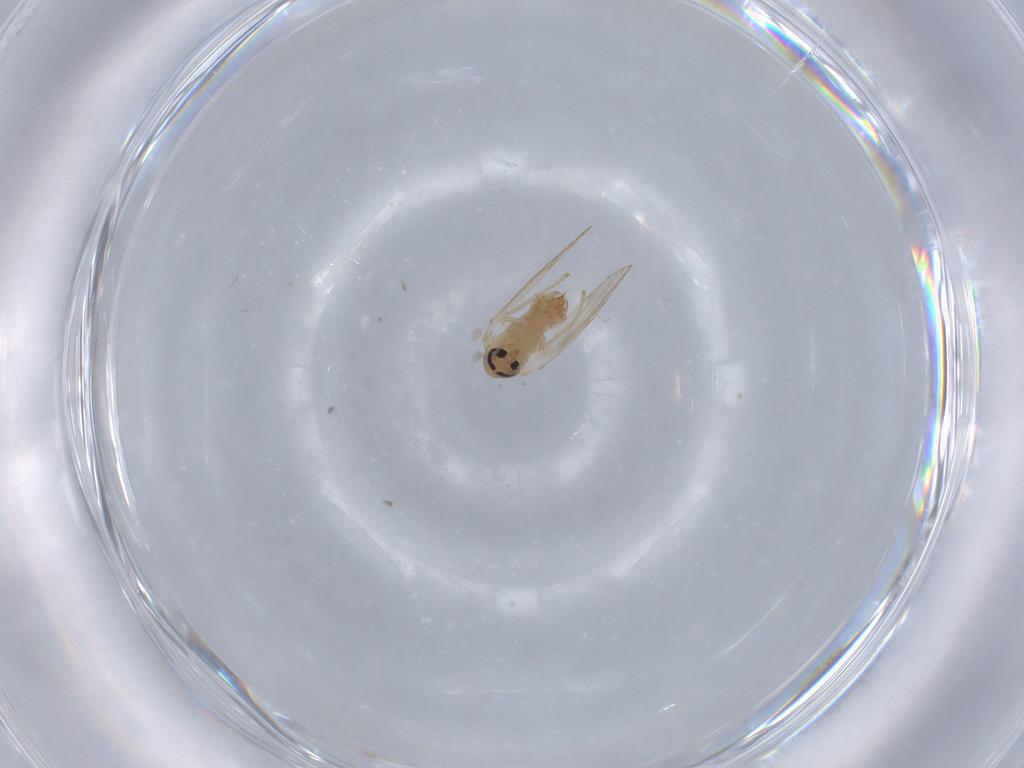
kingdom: Animalia
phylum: Arthropoda
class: Insecta
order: Diptera
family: Psychodidae
